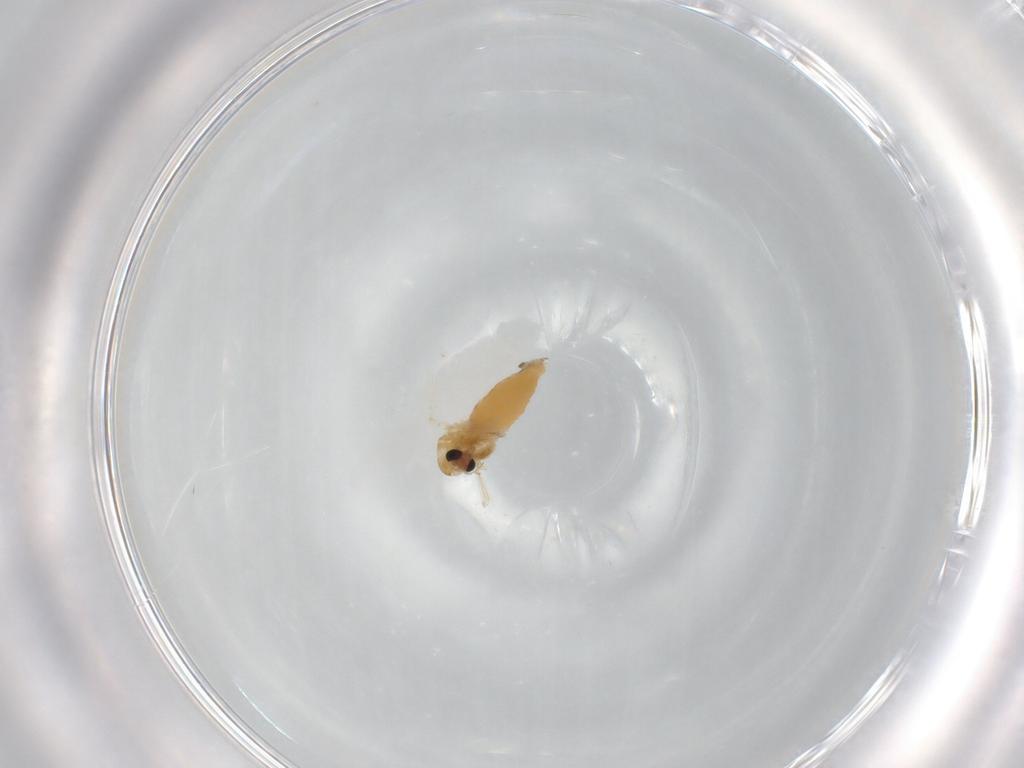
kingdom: Animalia
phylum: Arthropoda
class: Insecta
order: Diptera
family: Chironomidae
